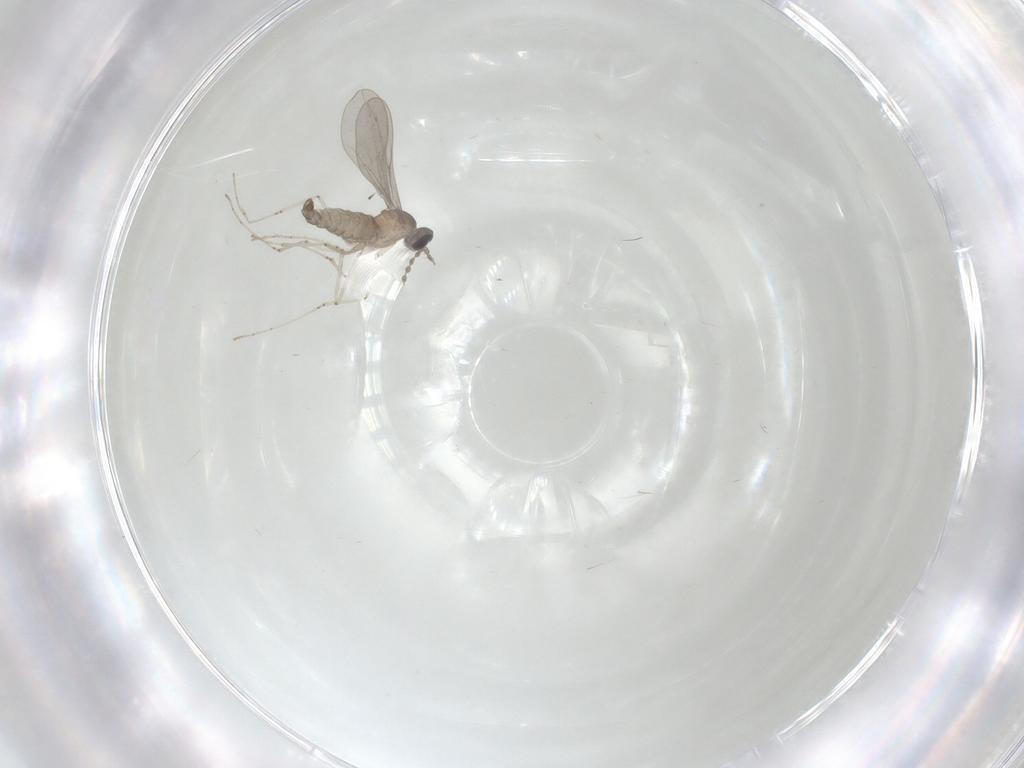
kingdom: Animalia
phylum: Arthropoda
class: Insecta
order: Diptera
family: Cecidomyiidae
